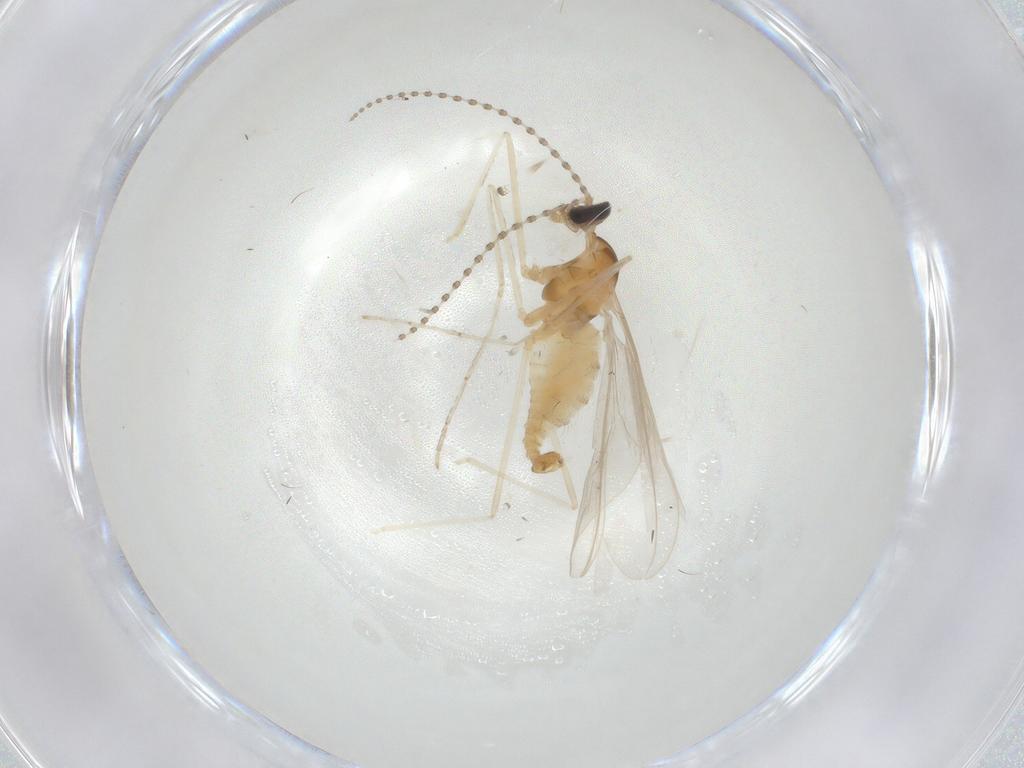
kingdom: Animalia
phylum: Arthropoda
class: Insecta
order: Diptera
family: Cecidomyiidae
